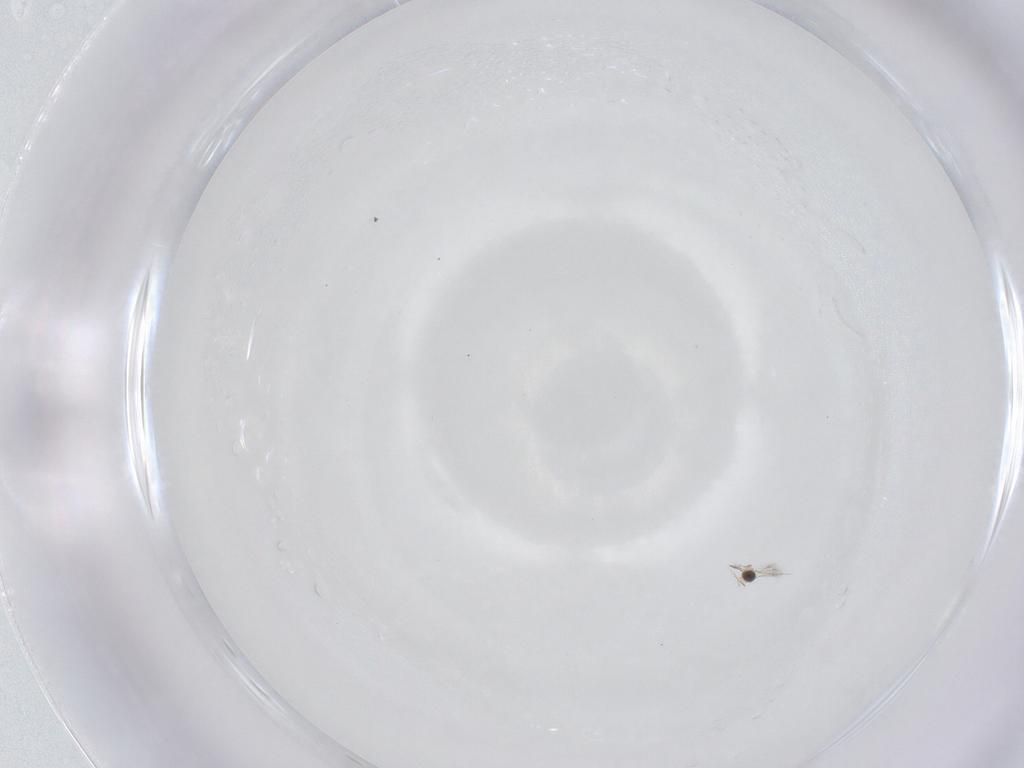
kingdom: Animalia
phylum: Arthropoda
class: Insecta
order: Hymenoptera
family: Mymaridae
